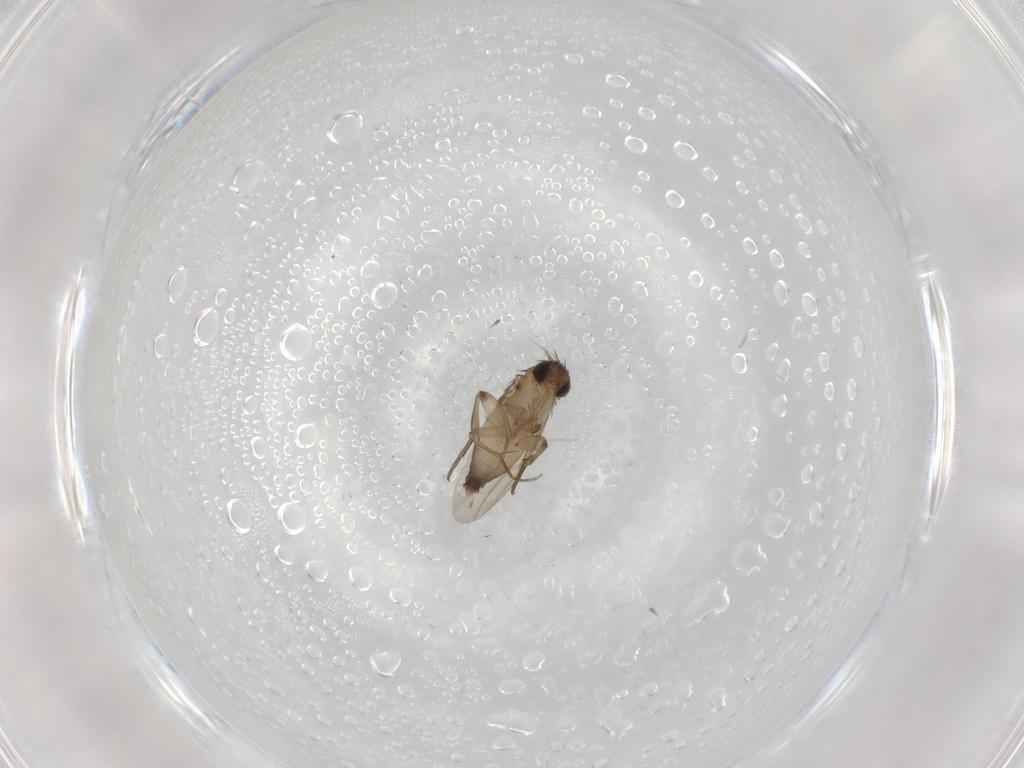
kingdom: Animalia
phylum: Arthropoda
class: Insecta
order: Diptera
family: Phoridae
